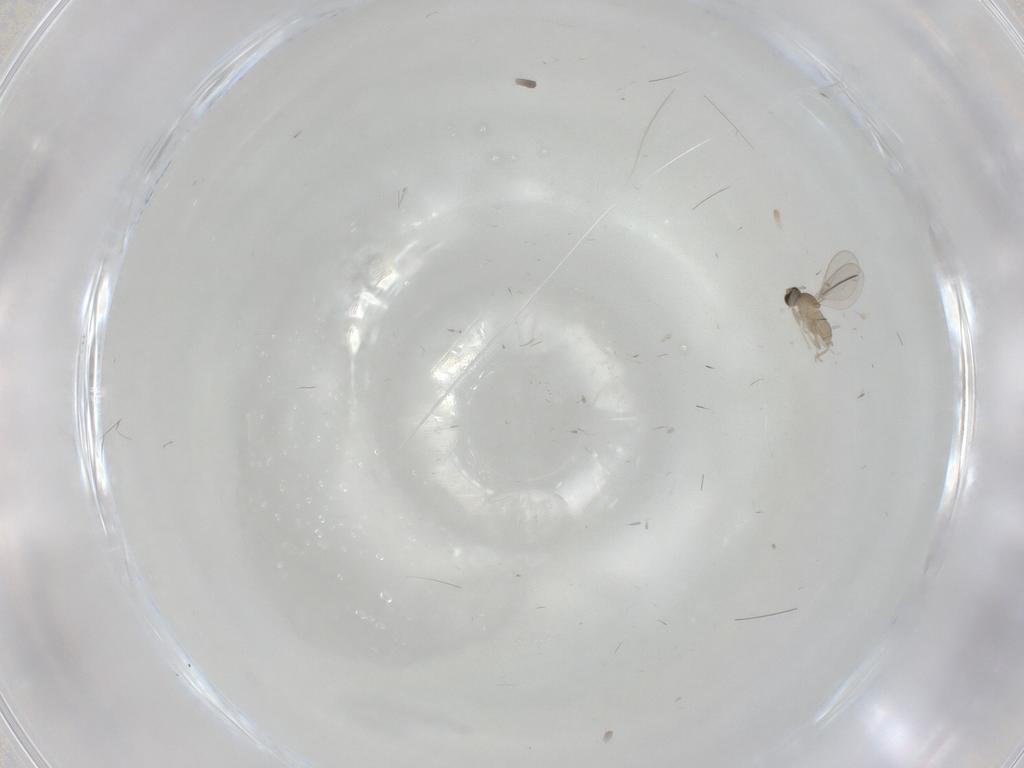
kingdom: Animalia
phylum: Arthropoda
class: Insecta
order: Diptera
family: Cecidomyiidae
